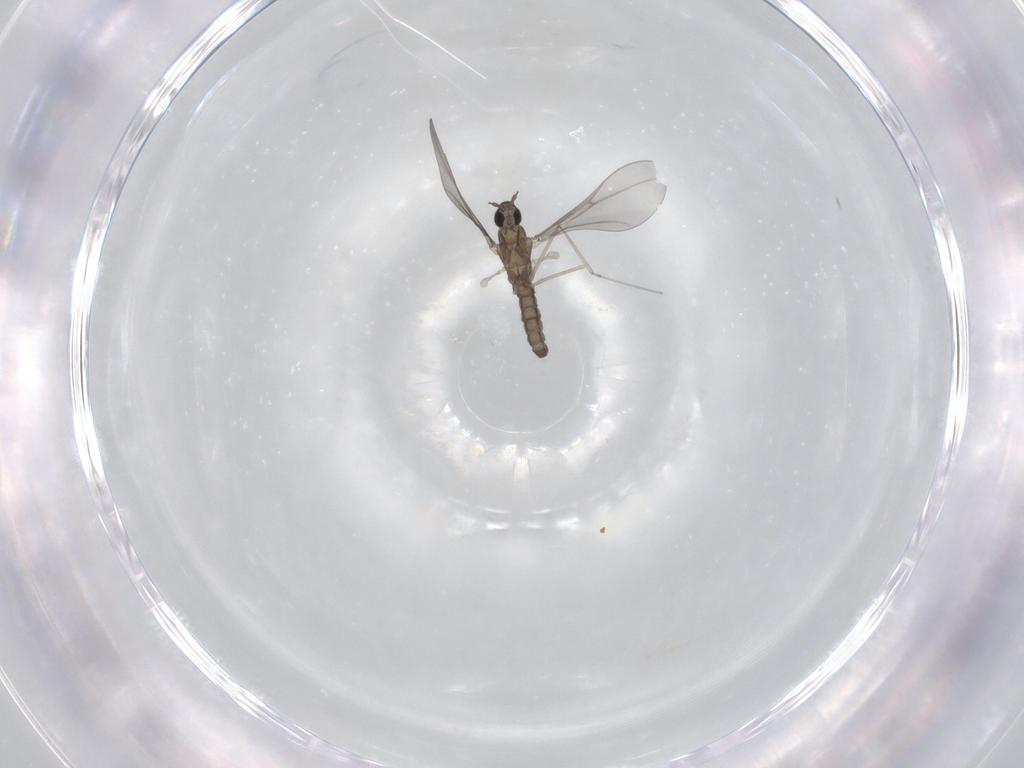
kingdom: Animalia
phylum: Arthropoda
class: Insecta
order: Diptera
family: Cecidomyiidae
